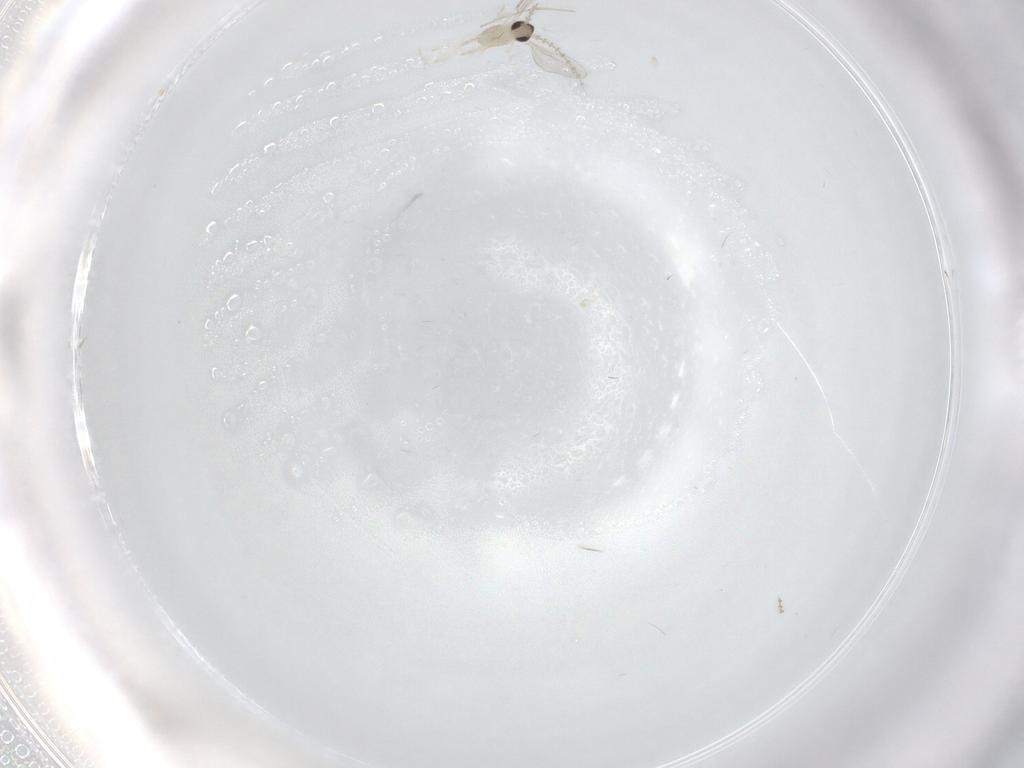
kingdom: Animalia
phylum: Arthropoda
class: Insecta
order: Diptera
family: Cecidomyiidae
